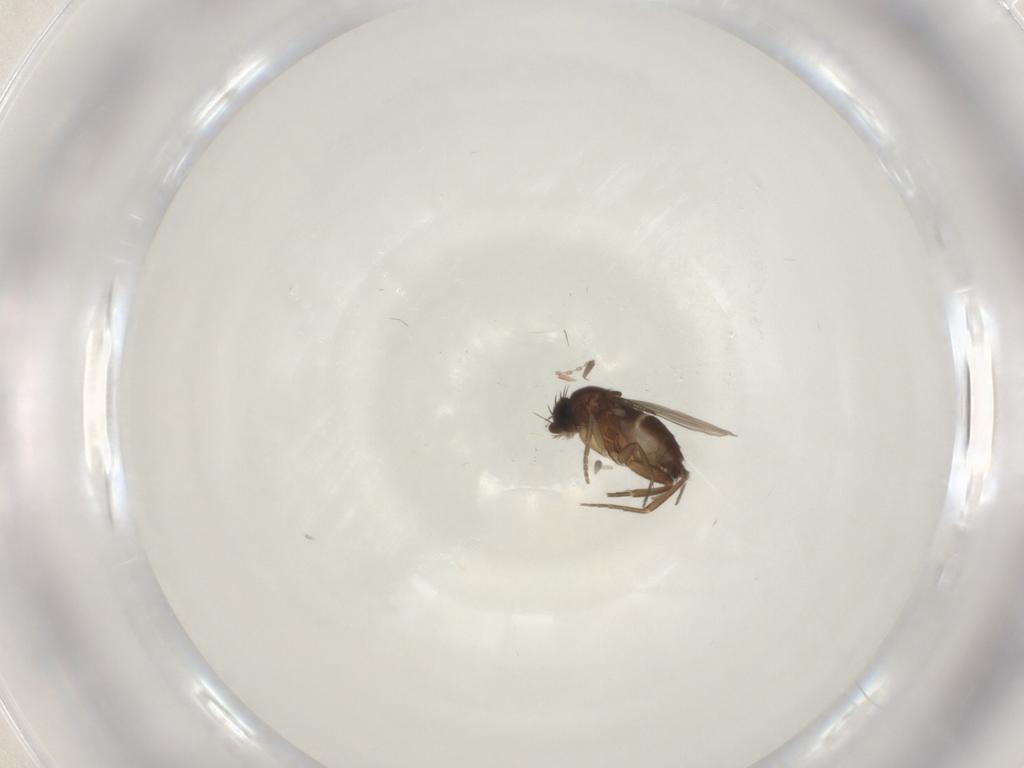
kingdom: Animalia
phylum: Arthropoda
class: Insecta
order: Diptera
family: Phoridae
